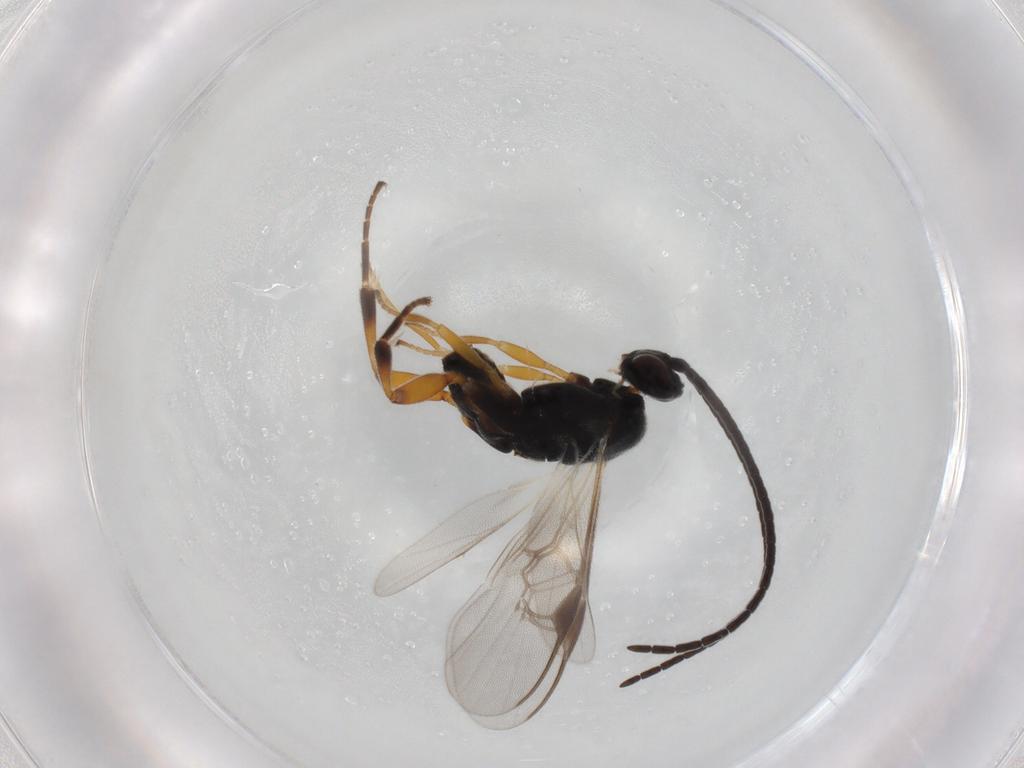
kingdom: Animalia
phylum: Arthropoda
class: Insecta
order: Hymenoptera
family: Braconidae
